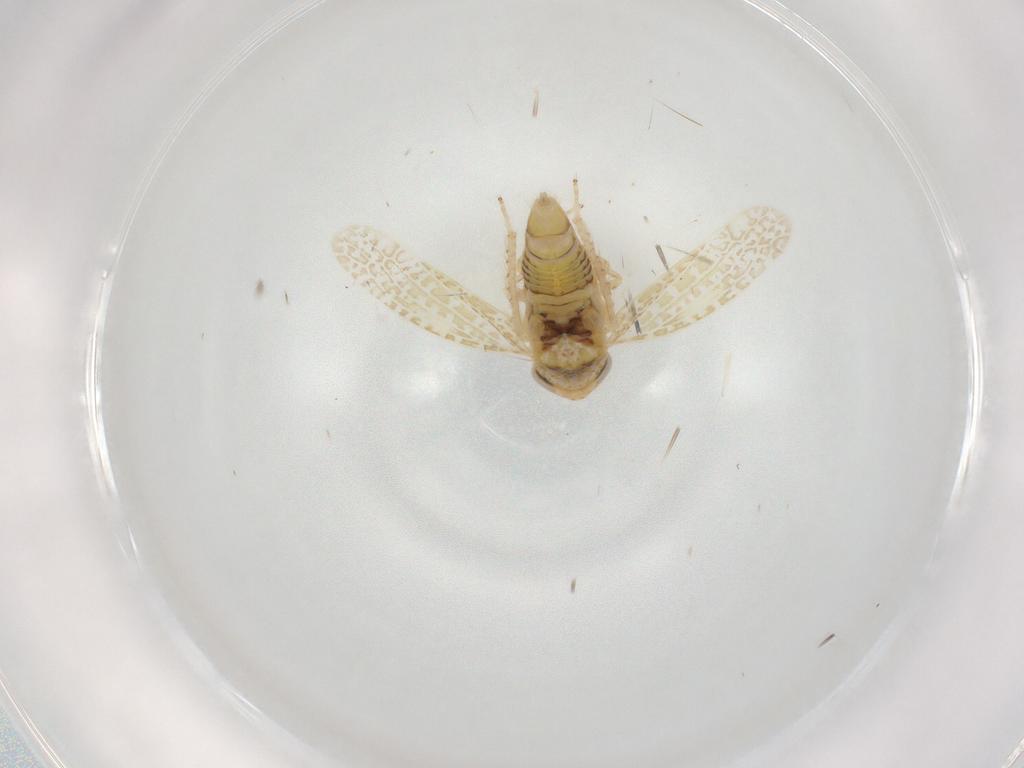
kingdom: Animalia
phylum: Arthropoda
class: Insecta
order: Hemiptera
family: Cicadellidae
